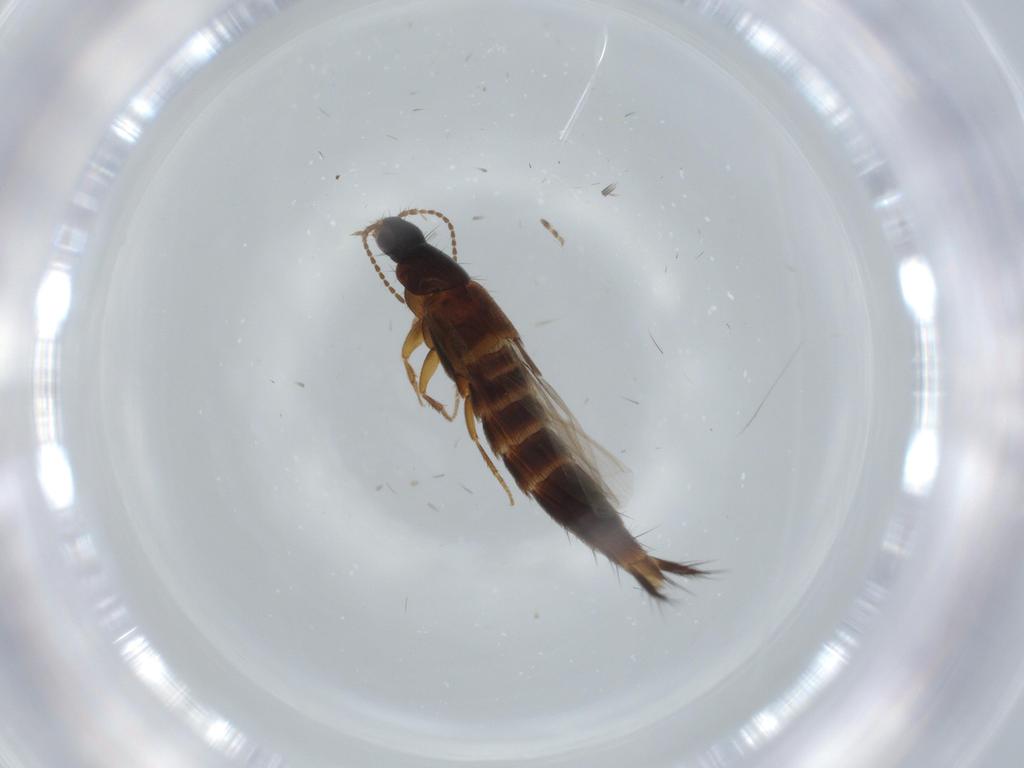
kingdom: Animalia
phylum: Arthropoda
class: Insecta
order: Coleoptera
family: Staphylinidae
